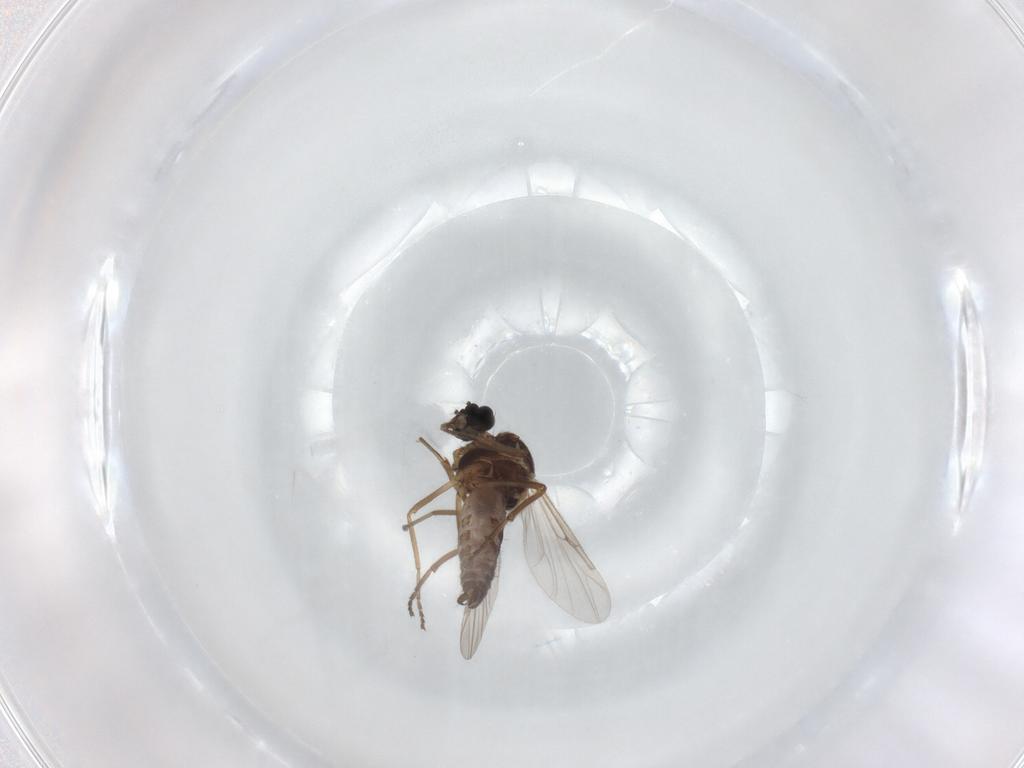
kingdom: Animalia
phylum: Arthropoda
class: Insecta
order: Diptera
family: Ceratopogonidae
